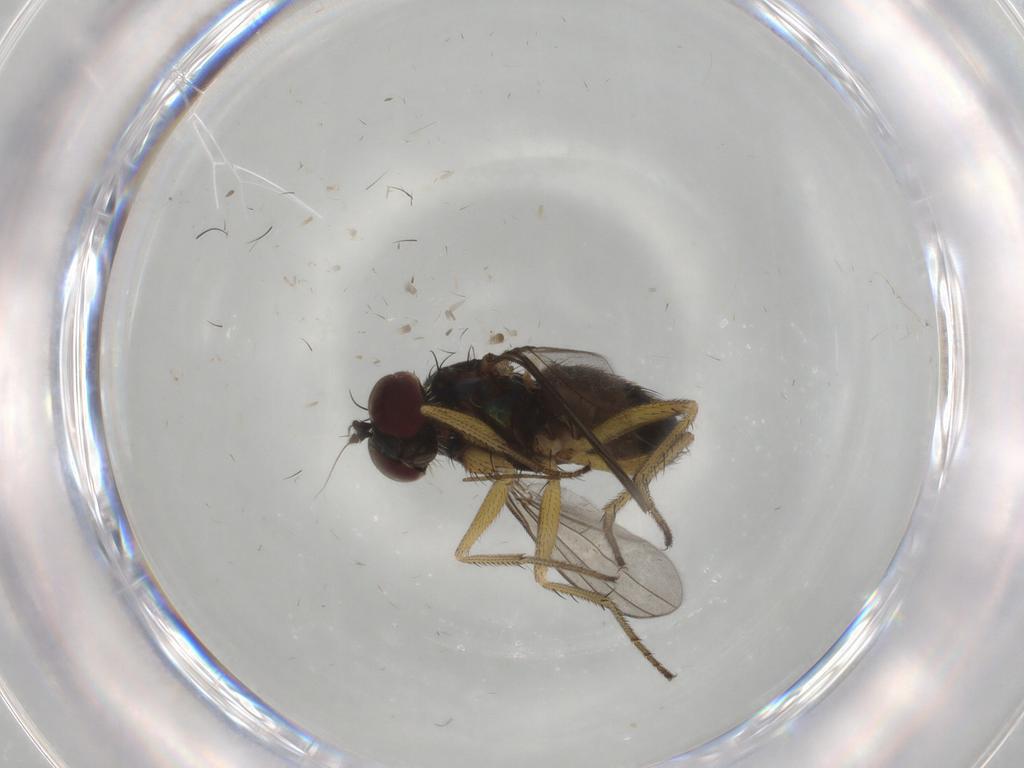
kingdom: Animalia
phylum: Arthropoda
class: Insecta
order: Diptera
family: Dolichopodidae
